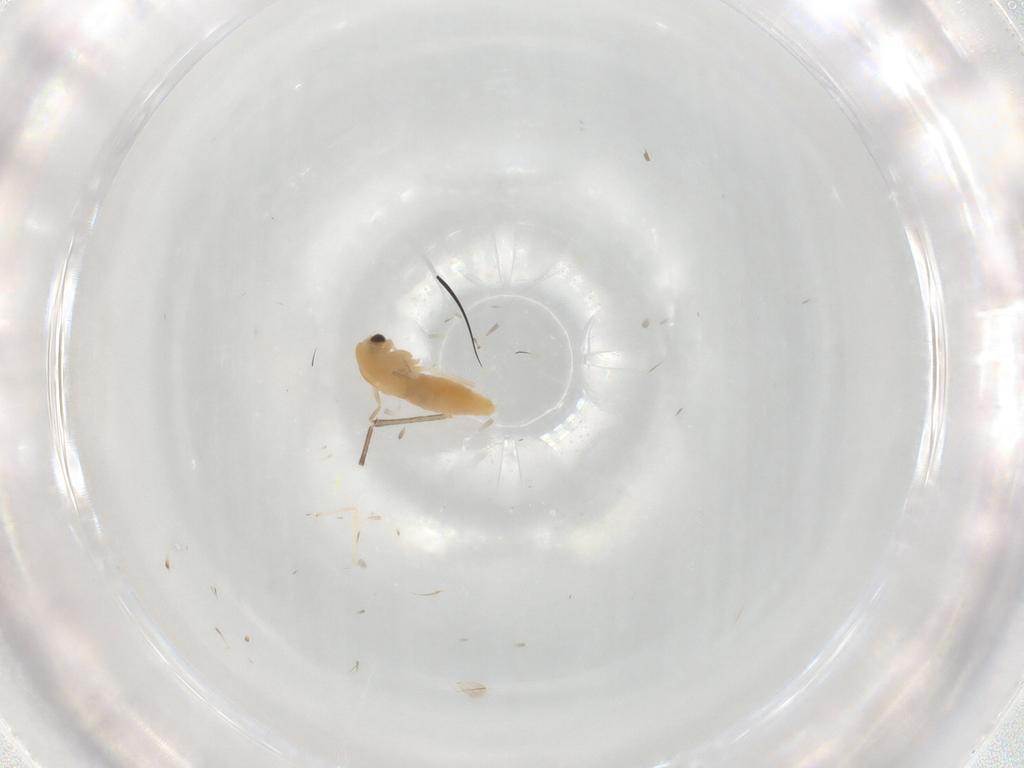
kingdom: Animalia
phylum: Arthropoda
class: Insecta
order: Diptera
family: Chironomidae
